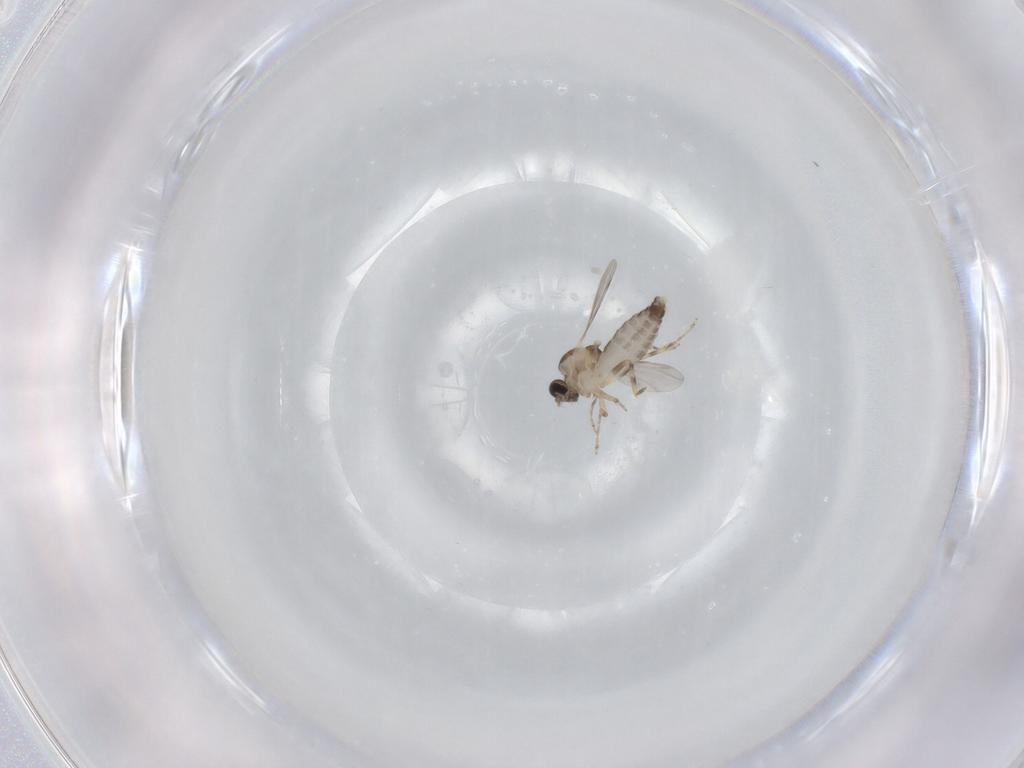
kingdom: Animalia
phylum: Arthropoda
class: Insecta
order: Diptera
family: Ceratopogonidae
